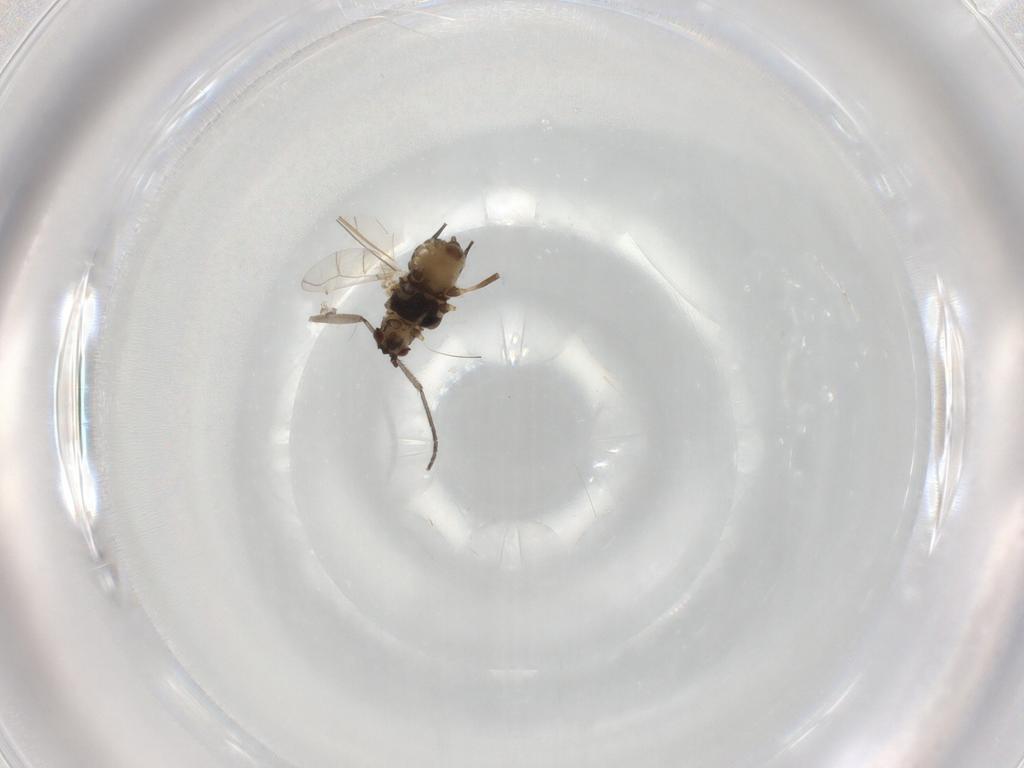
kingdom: Animalia
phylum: Arthropoda
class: Insecta
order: Hemiptera
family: Aphididae
